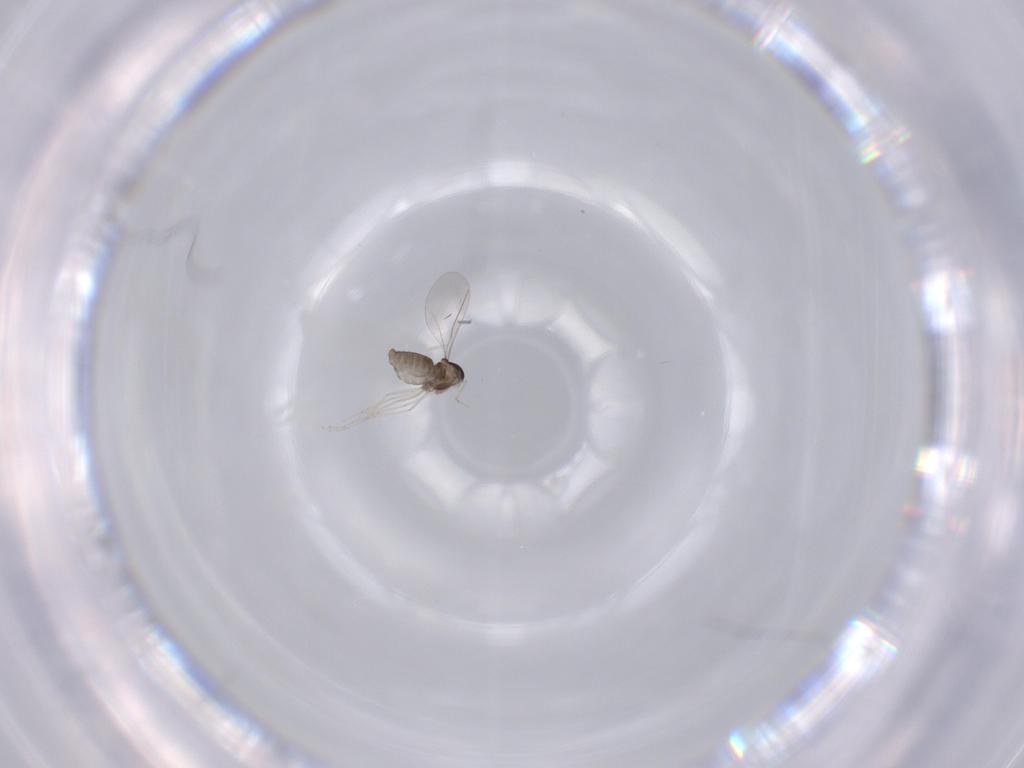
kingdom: Animalia
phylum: Arthropoda
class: Insecta
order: Diptera
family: Cecidomyiidae
